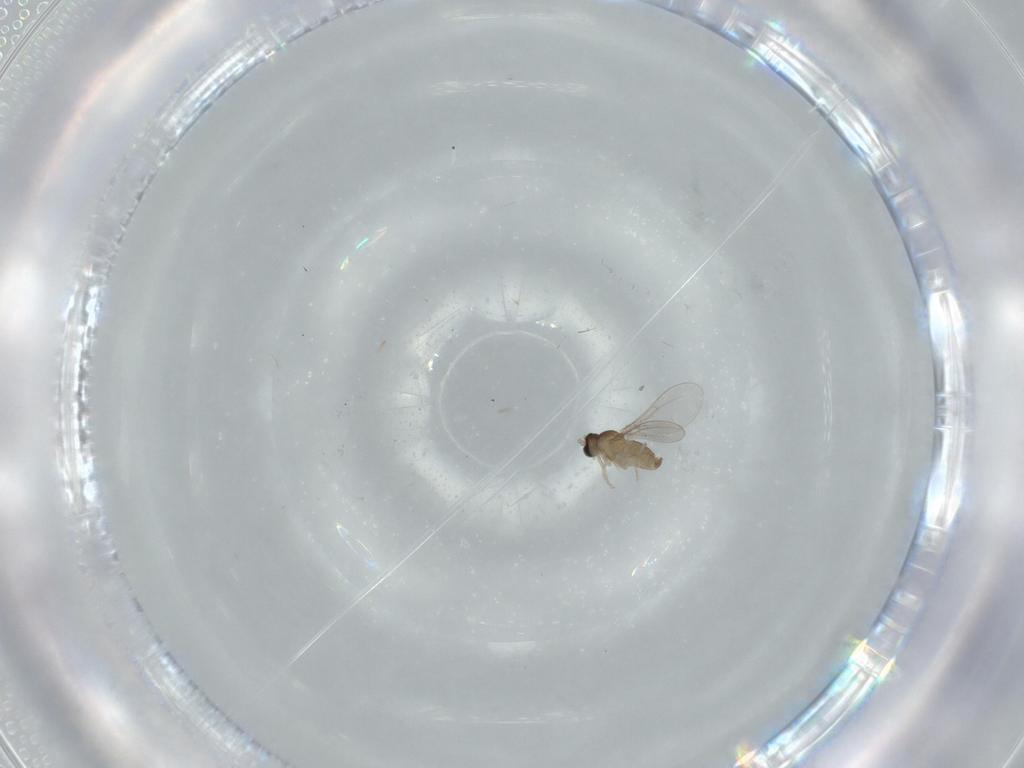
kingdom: Animalia
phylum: Arthropoda
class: Insecta
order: Diptera
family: Cecidomyiidae
